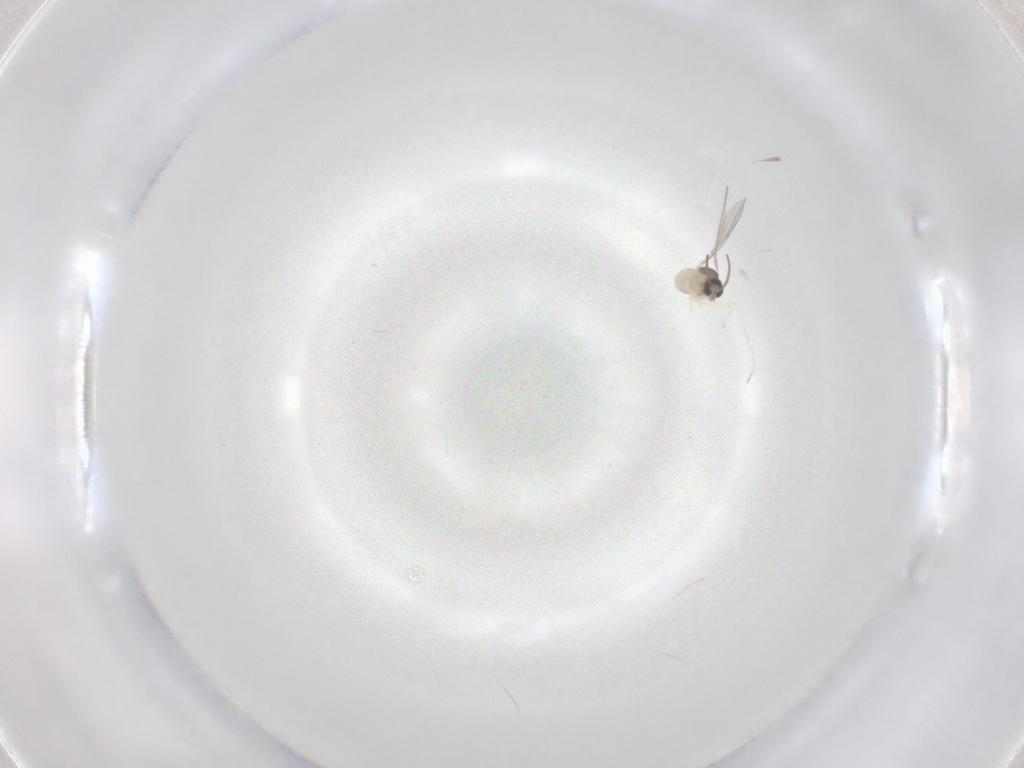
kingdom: Animalia
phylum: Arthropoda
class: Insecta
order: Diptera
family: Cecidomyiidae
